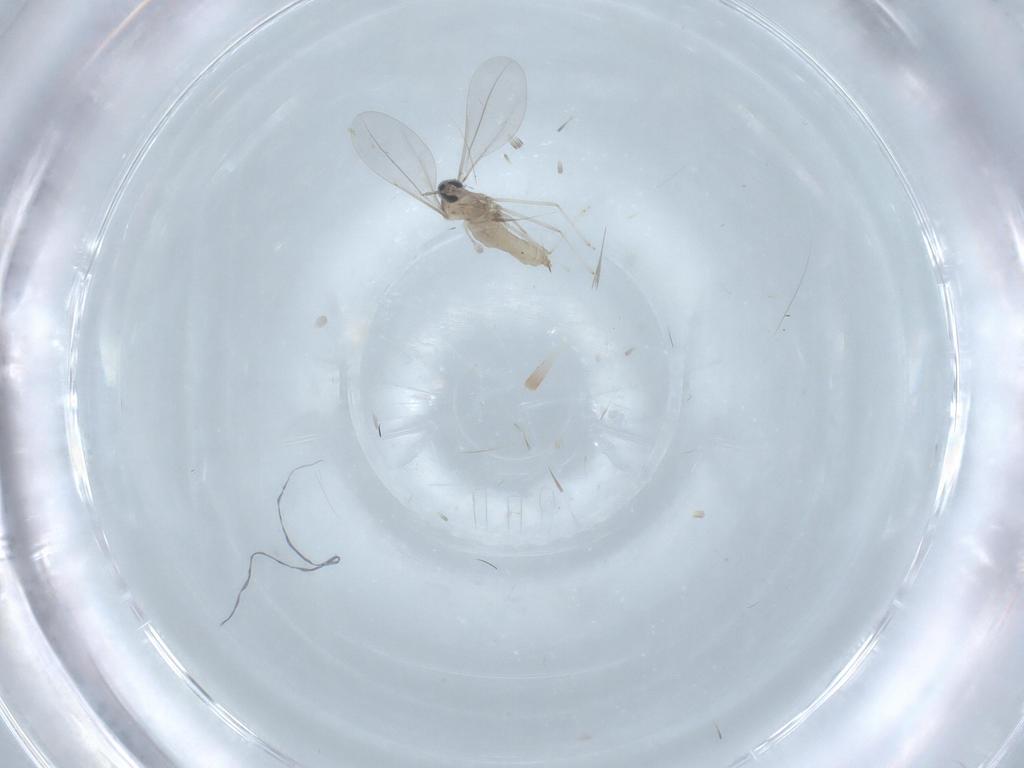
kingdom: Animalia
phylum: Arthropoda
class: Insecta
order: Diptera
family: Cecidomyiidae
